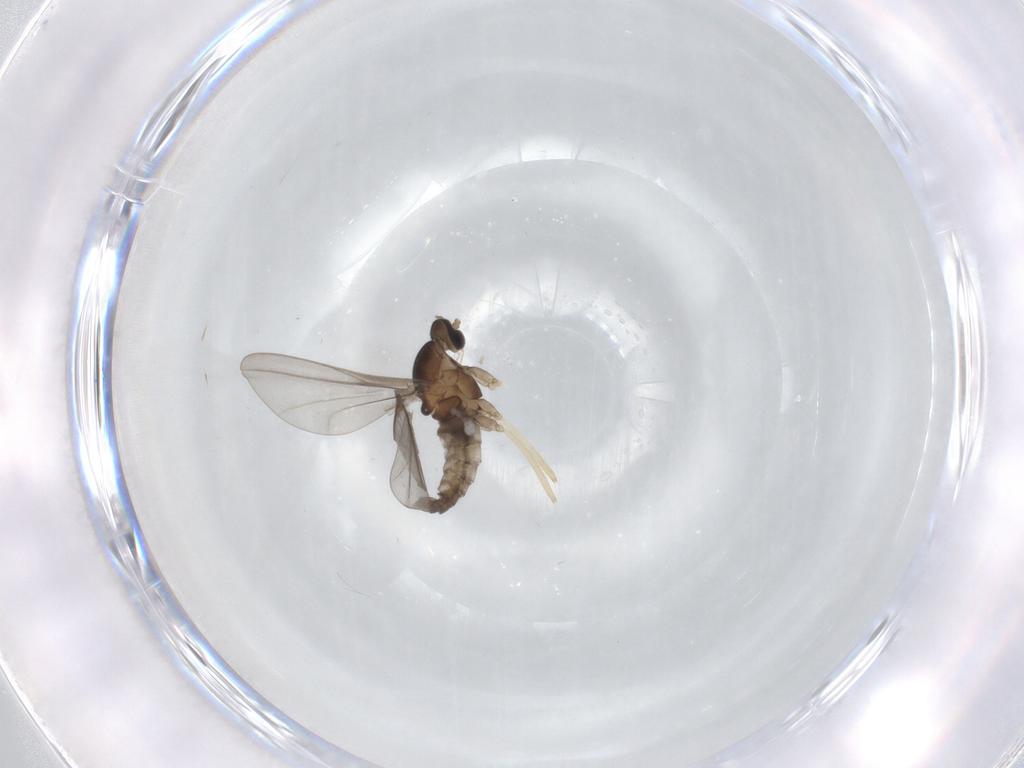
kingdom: Animalia
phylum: Arthropoda
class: Insecta
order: Diptera
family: Cecidomyiidae
